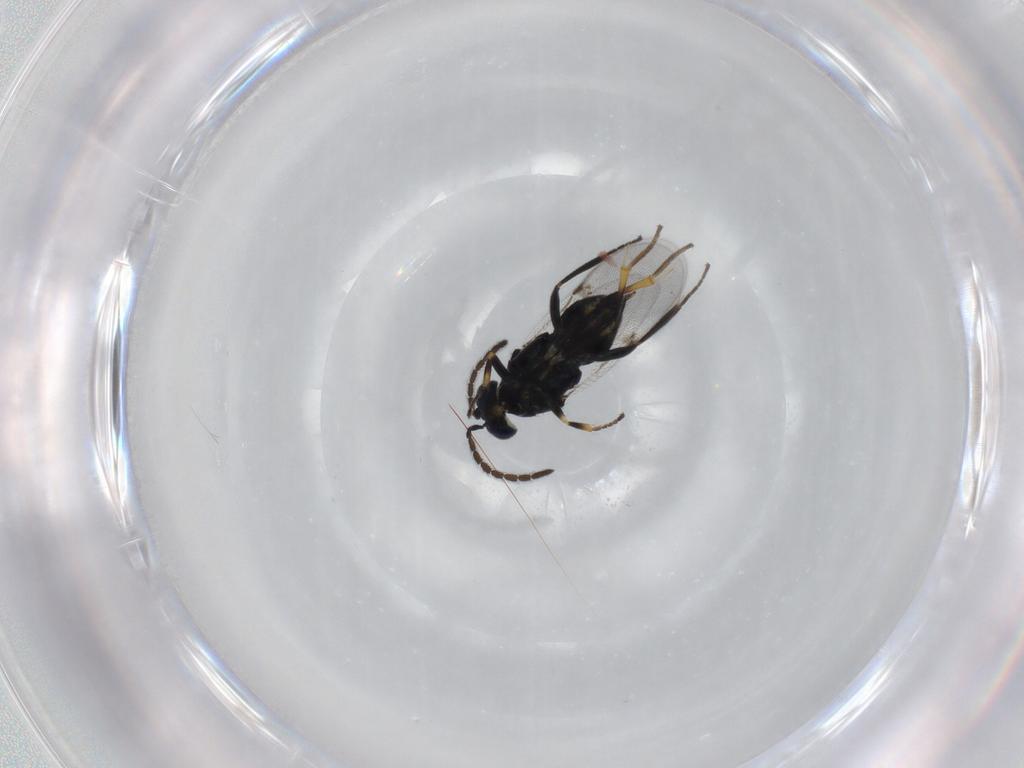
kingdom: Animalia
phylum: Arthropoda
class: Insecta
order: Hymenoptera
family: Encyrtidae
